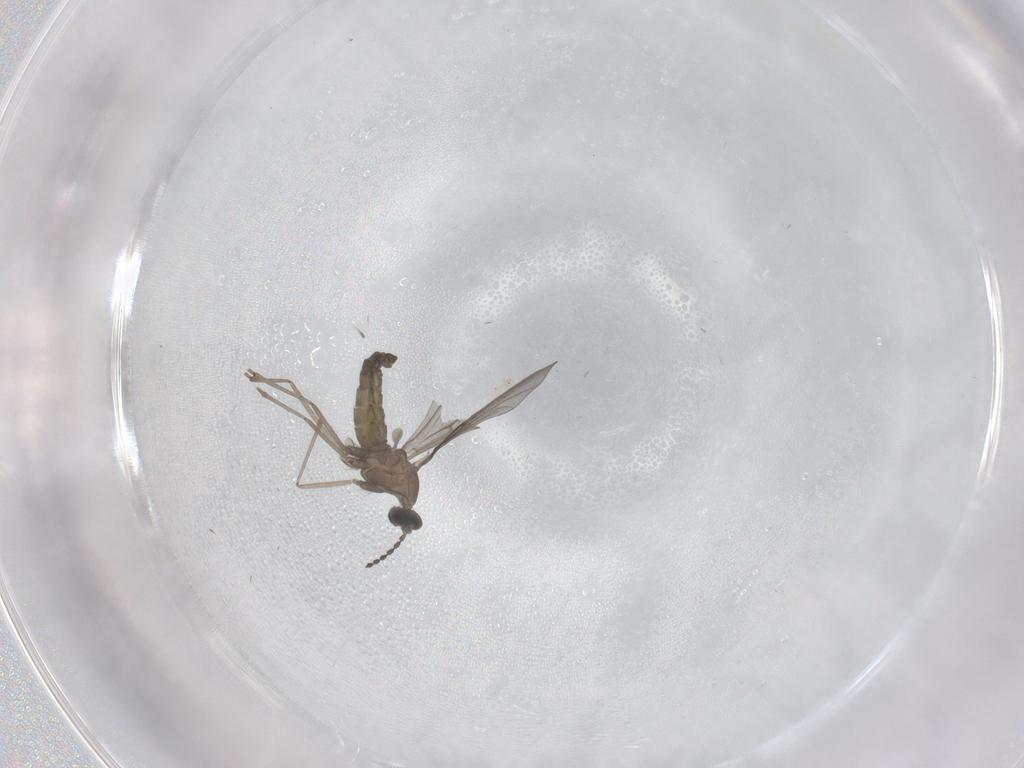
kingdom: Animalia
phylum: Arthropoda
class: Insecta
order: Diptera
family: Cecidomyiidae
